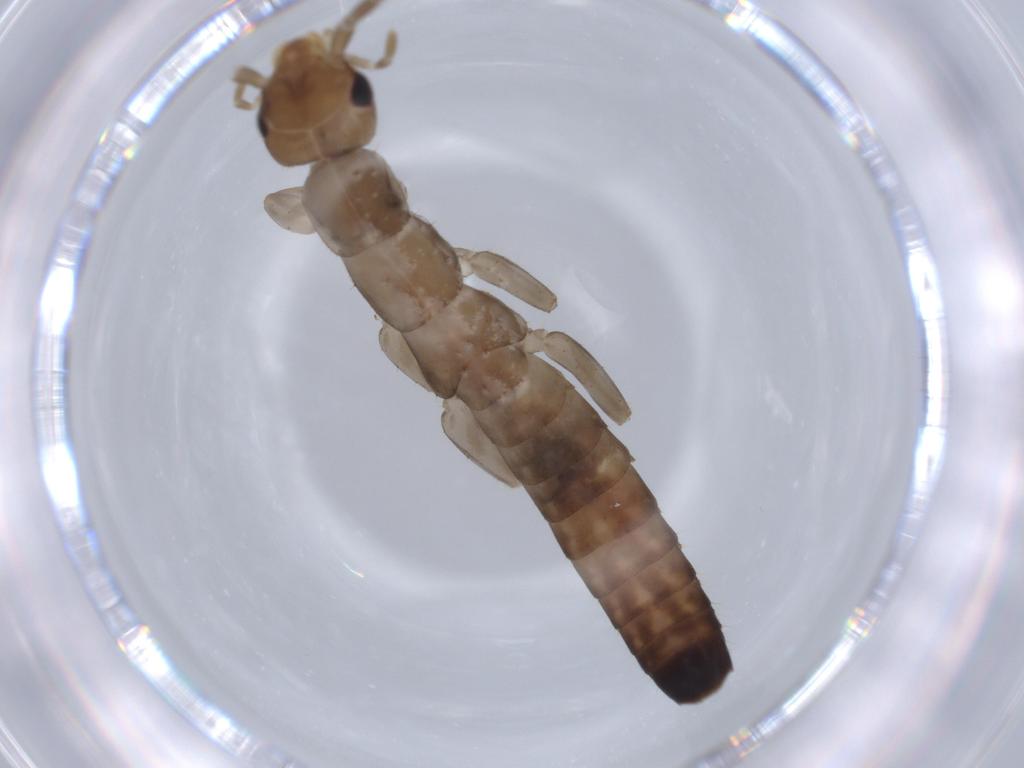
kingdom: Animalia
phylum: Arthropoda
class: Insecta
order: Dermaptera
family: Labiduridae
